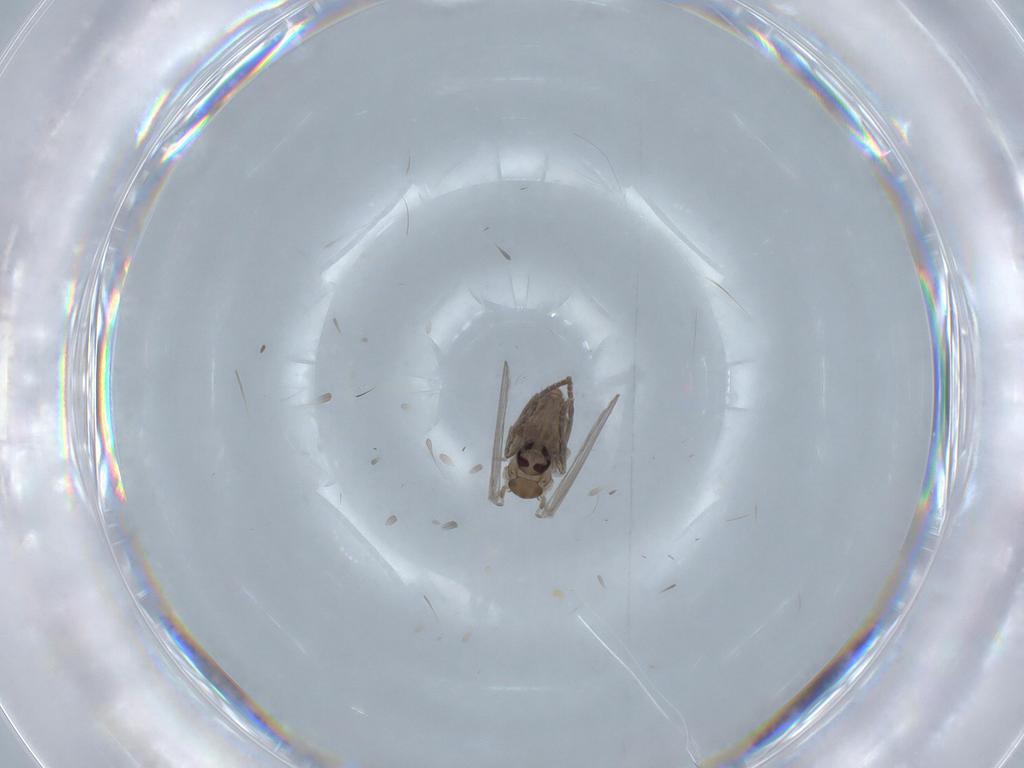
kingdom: Animalia
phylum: Arthropoda
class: Insecta
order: Diptera
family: Psychodidae
